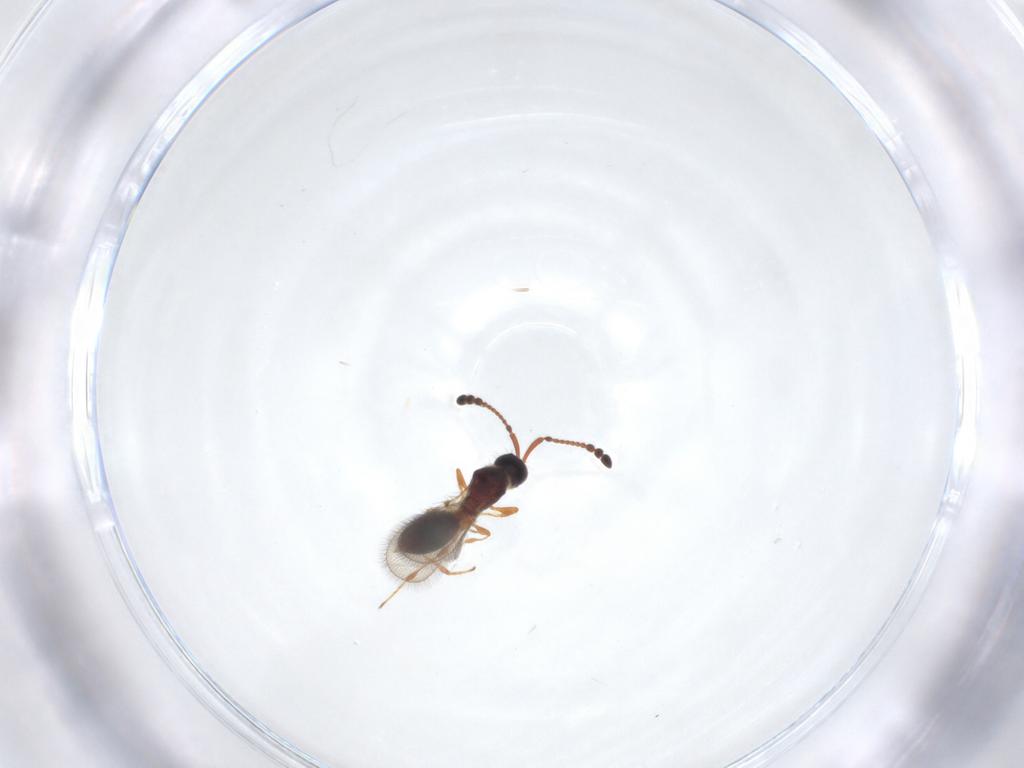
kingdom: Animalia
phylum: Arthropoda
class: Insecta
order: Hymenoptera
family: Diapriidae
